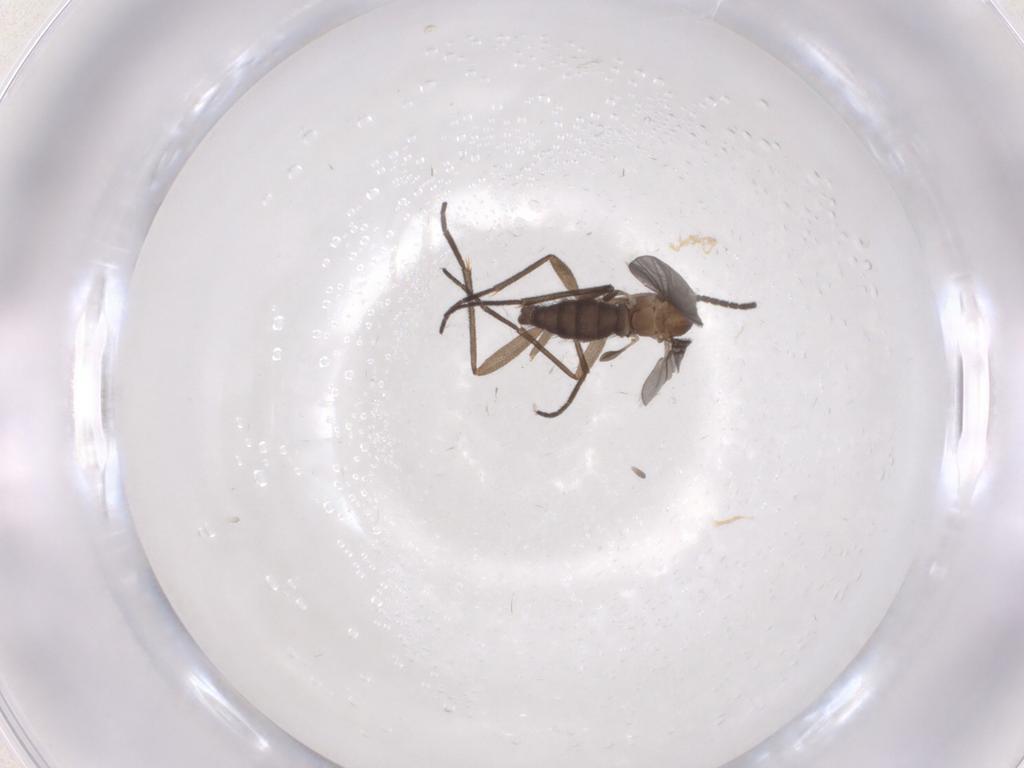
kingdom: Animalia
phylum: Arthropoda
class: Insecta
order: Diptera
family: Sciaridae
